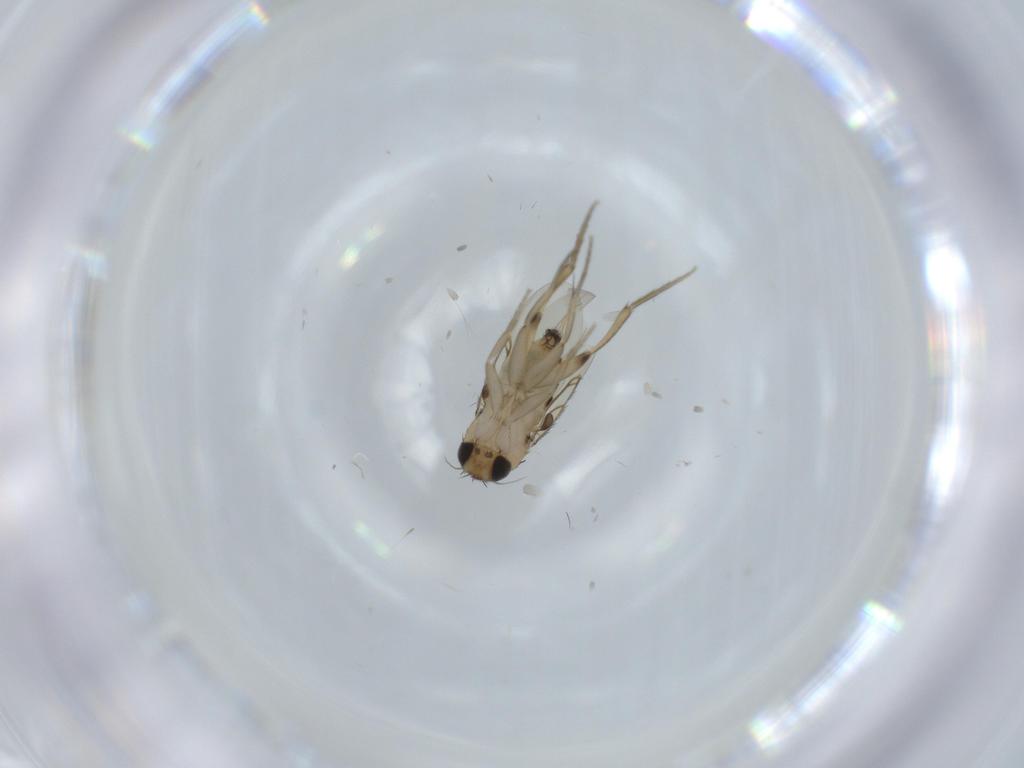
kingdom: Animalia
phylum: Arthropoda
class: Insecta
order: Diptera
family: Phoridae
